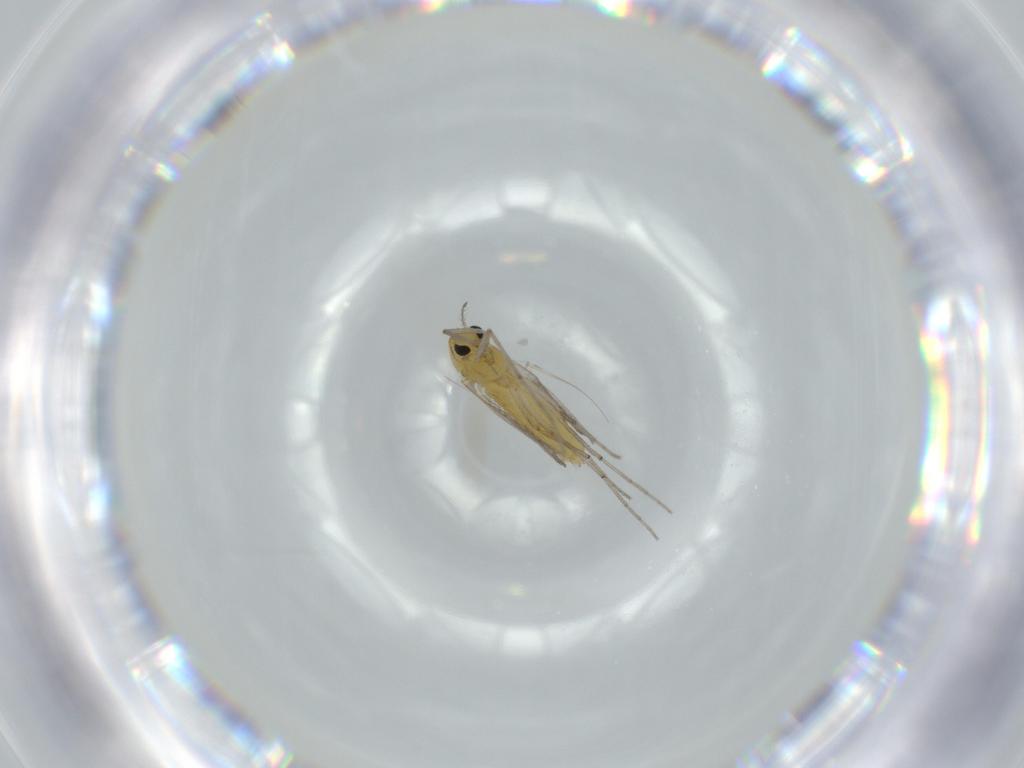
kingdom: Animalia
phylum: Arthropoda
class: Insecta
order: Diptera
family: Chironomidae
